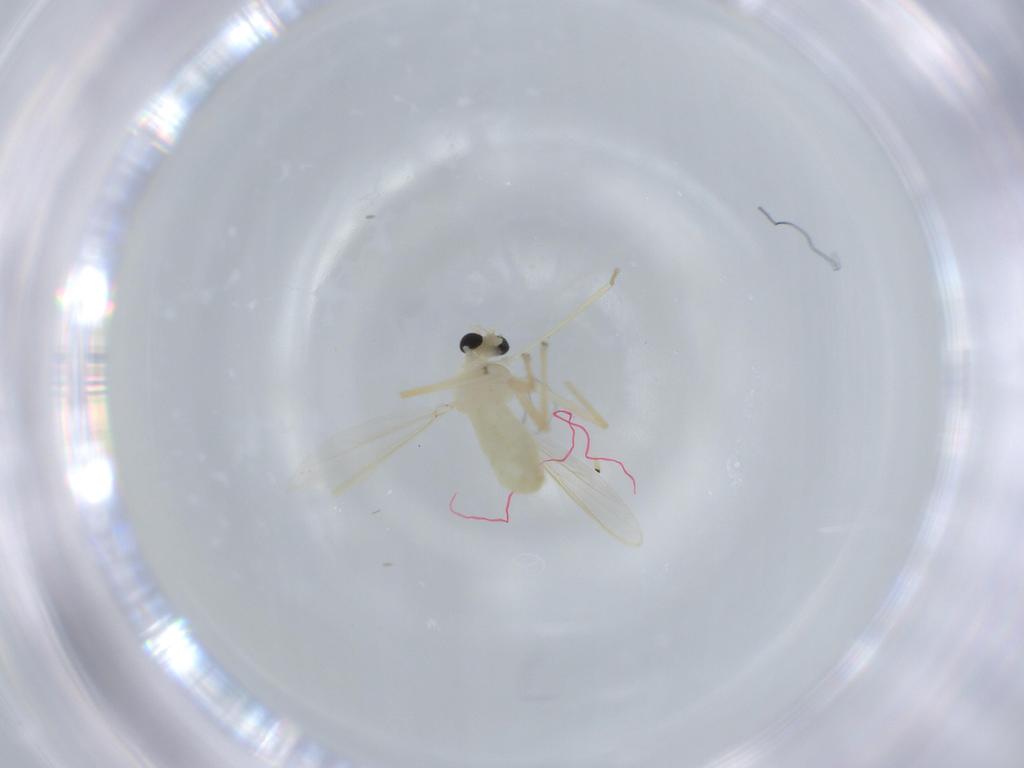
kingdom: Animalia
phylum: Arthropoda
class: Insecta
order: Diptera
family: Chironomidae
